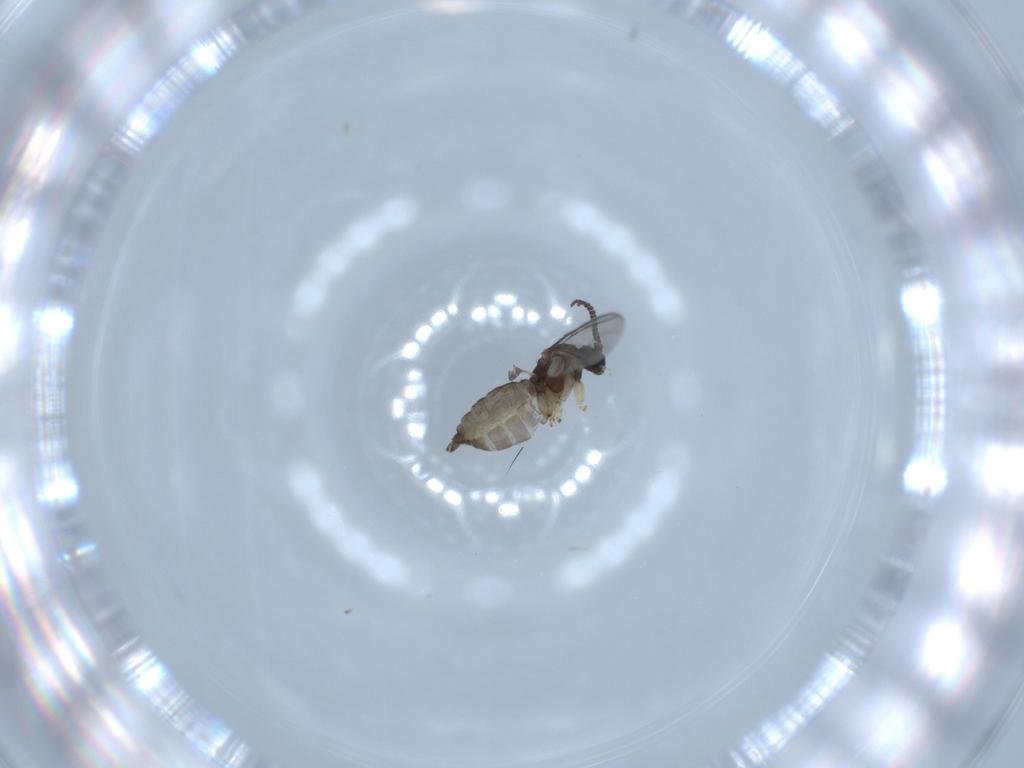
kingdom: Animalia
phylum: Arthropoda
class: Insecta
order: Diptera
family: Sciaridae
